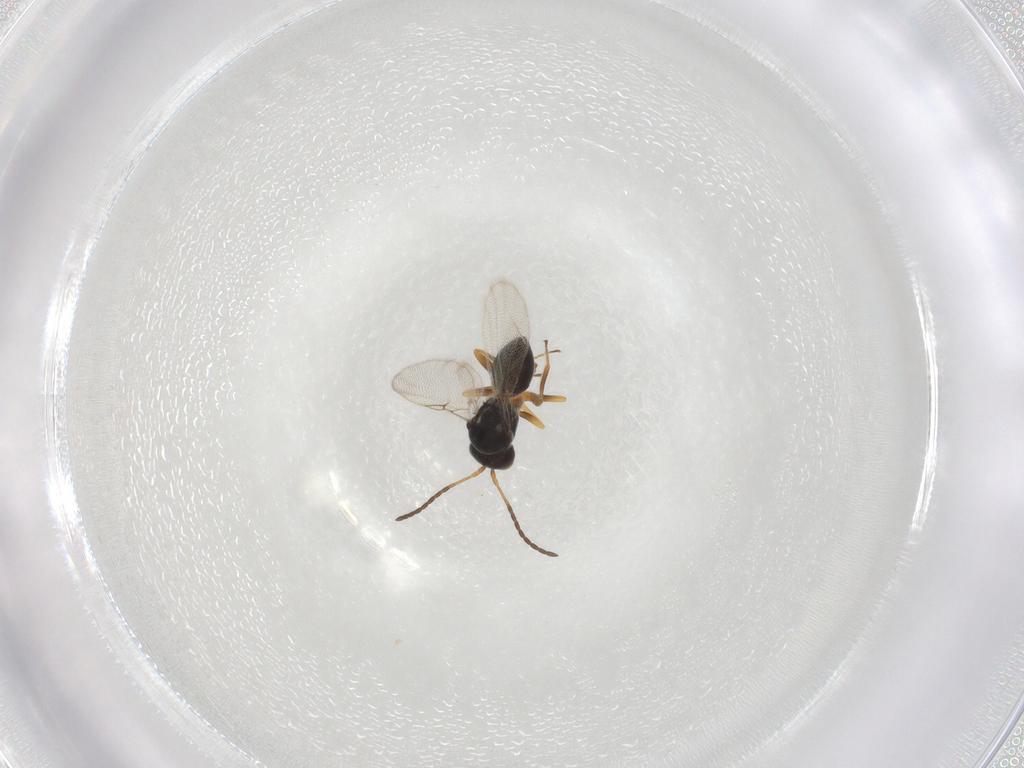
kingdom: Animalia
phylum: Arthropoda
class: Insecta
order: Hymenoptera
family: Figitidae
